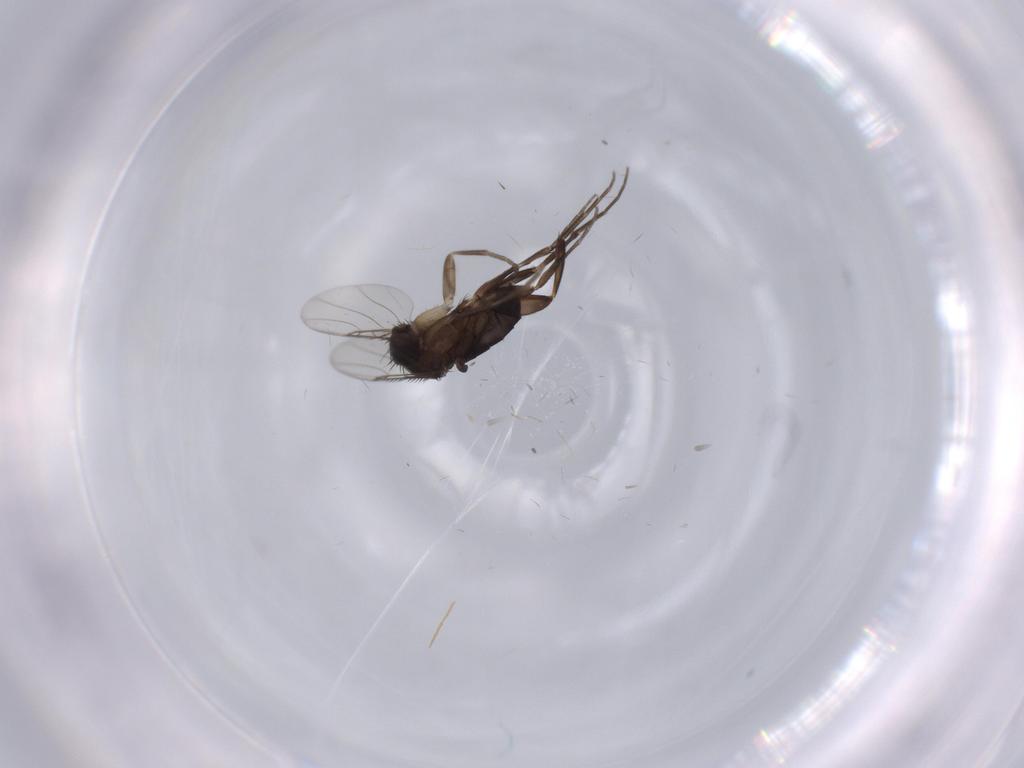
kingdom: Animalia
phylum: Arthropoda
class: Insecta
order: Diptera
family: Phoridae
